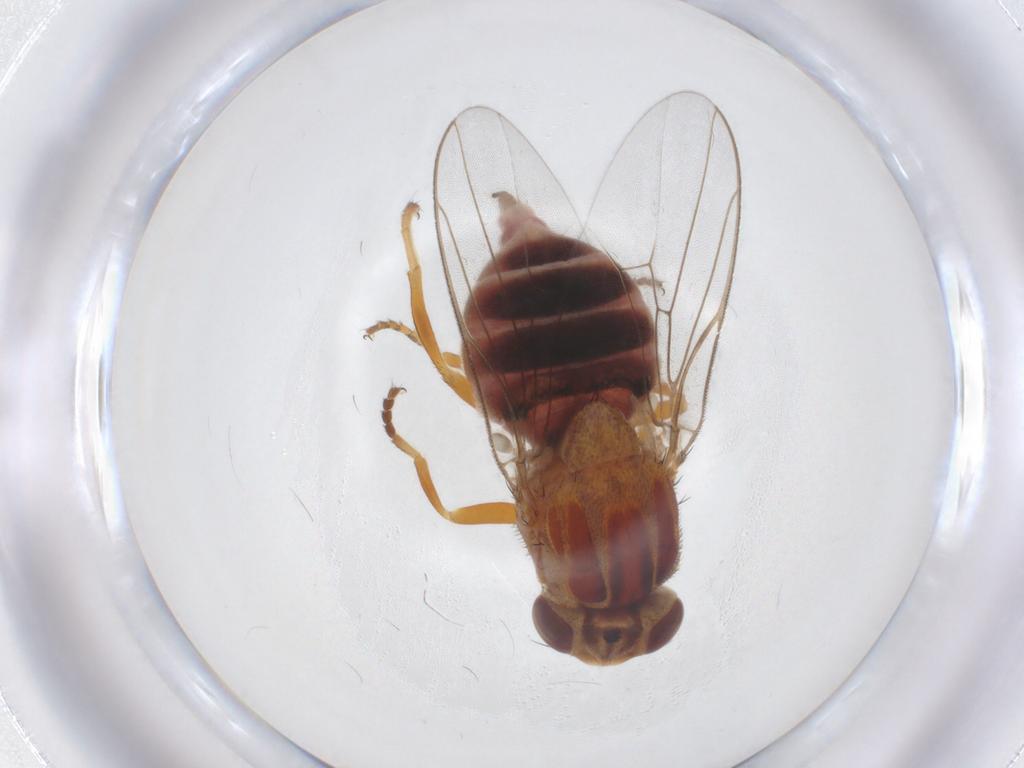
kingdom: Animalia
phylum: Arthropoda
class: Insecta
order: Diptera
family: Chloropidae
